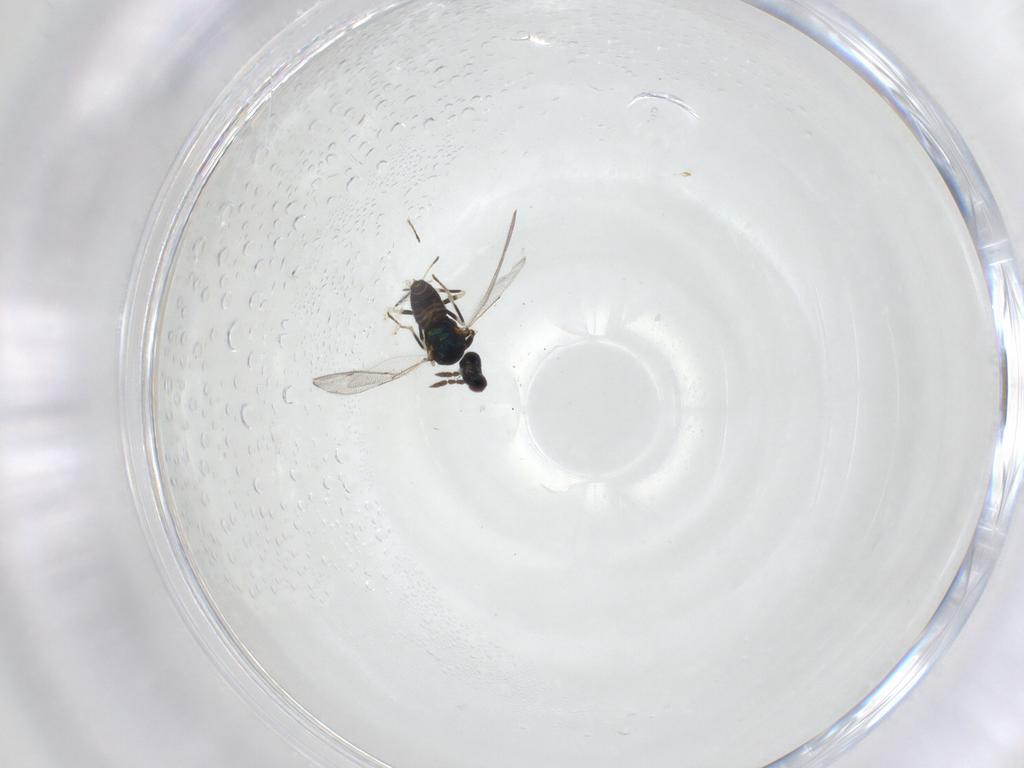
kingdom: Animalia
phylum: Arthropoda
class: Insecta
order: Hymenoptera
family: Eulophidae
